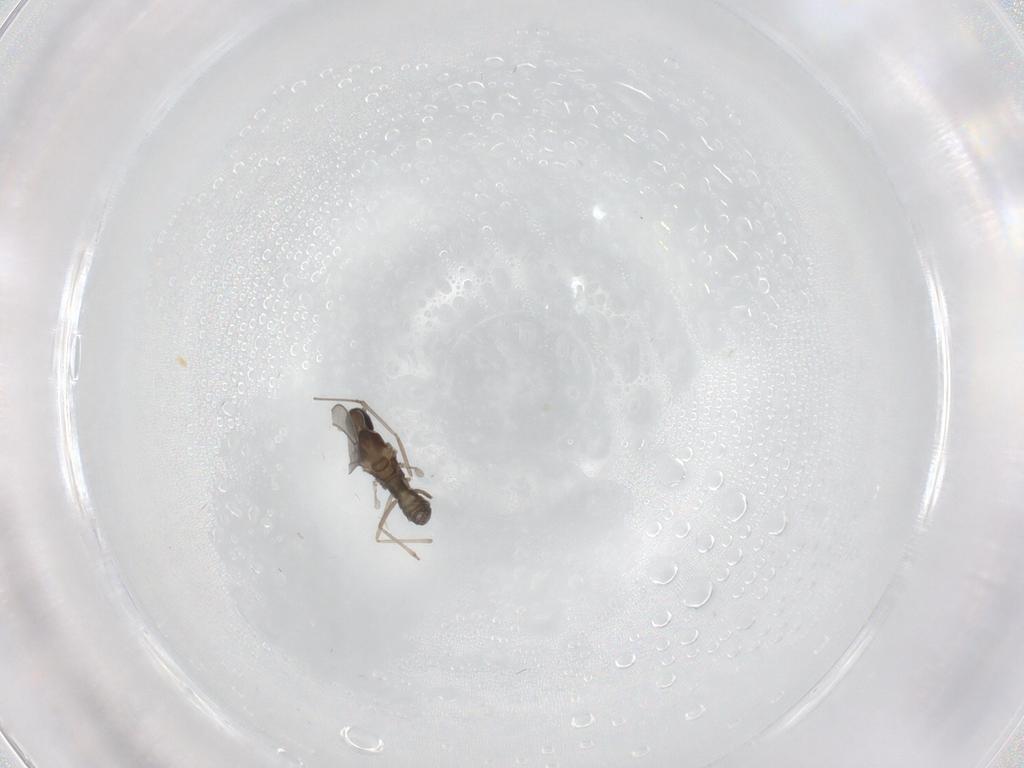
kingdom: Animalia
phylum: Arthropoda
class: Insecta
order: Diptera
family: Cecidomyiidae
